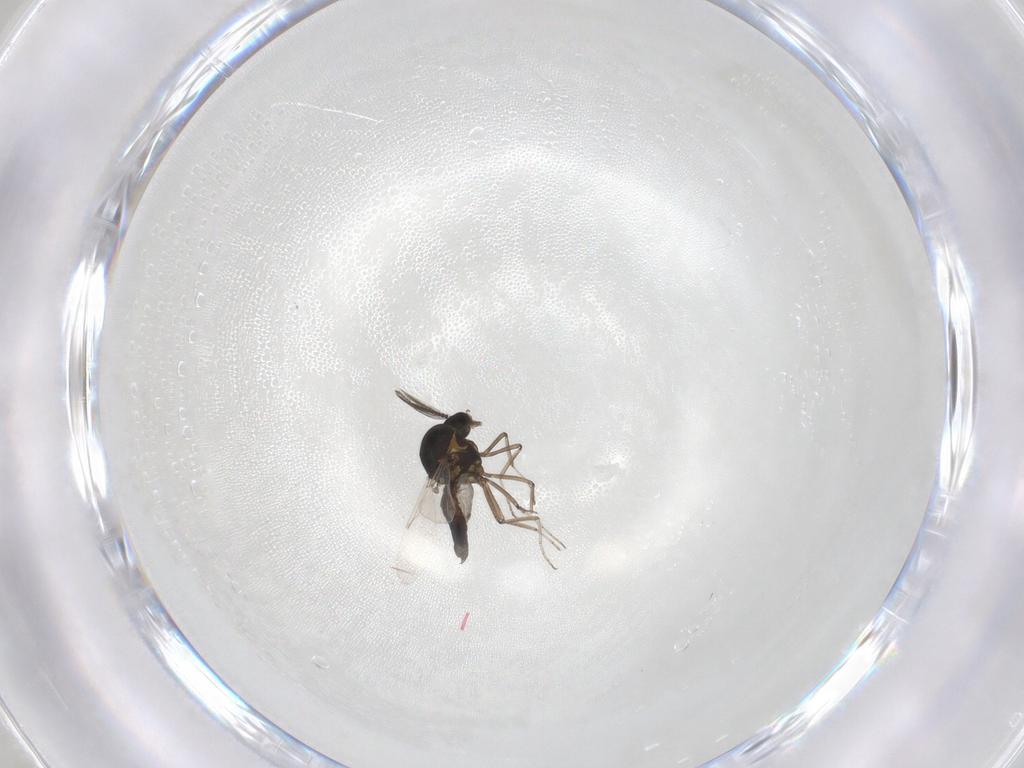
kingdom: Animalia
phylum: Arthropoda
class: Insecta
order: Diptera
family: Ceratopogonidae
